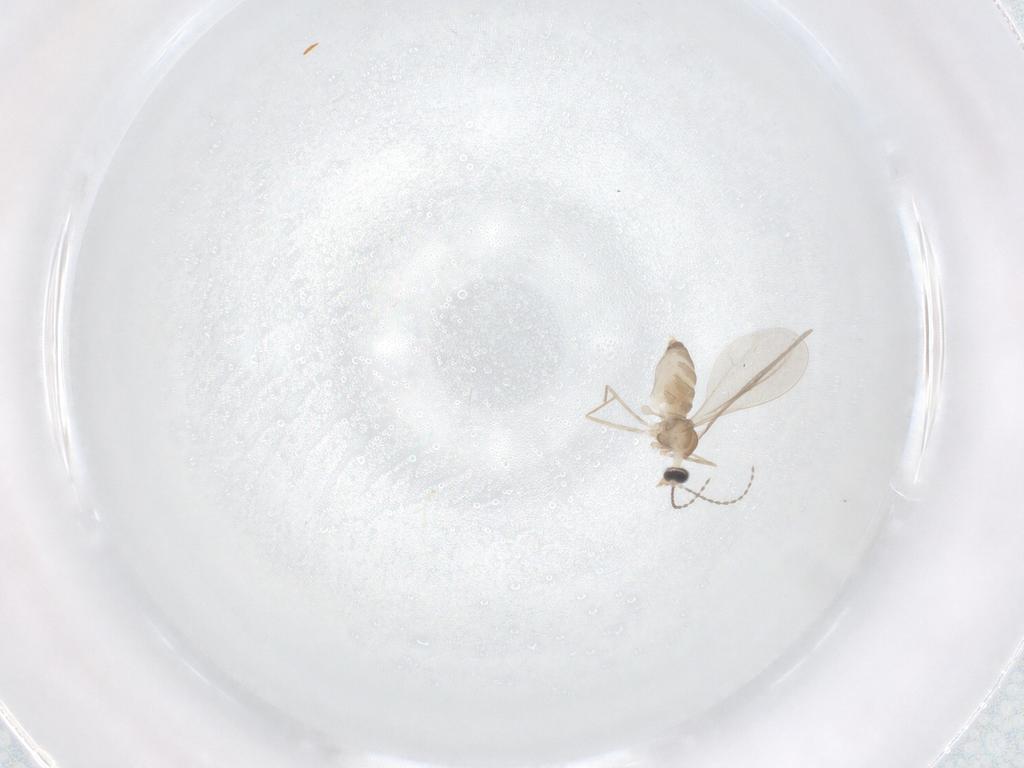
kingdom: Animalia
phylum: Arthropoda
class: Insecta
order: Diptera
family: Cecidomyiidae
